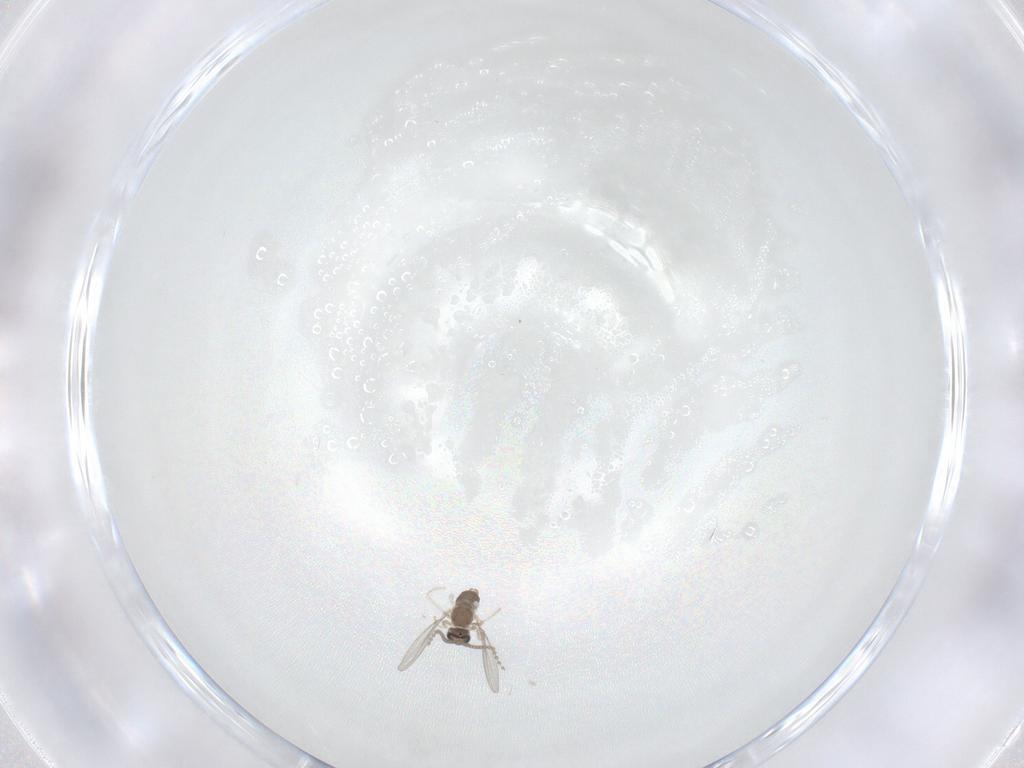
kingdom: Animalia
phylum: Arthropoda
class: Insecta
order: Diptera
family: Cecidomyiidae
